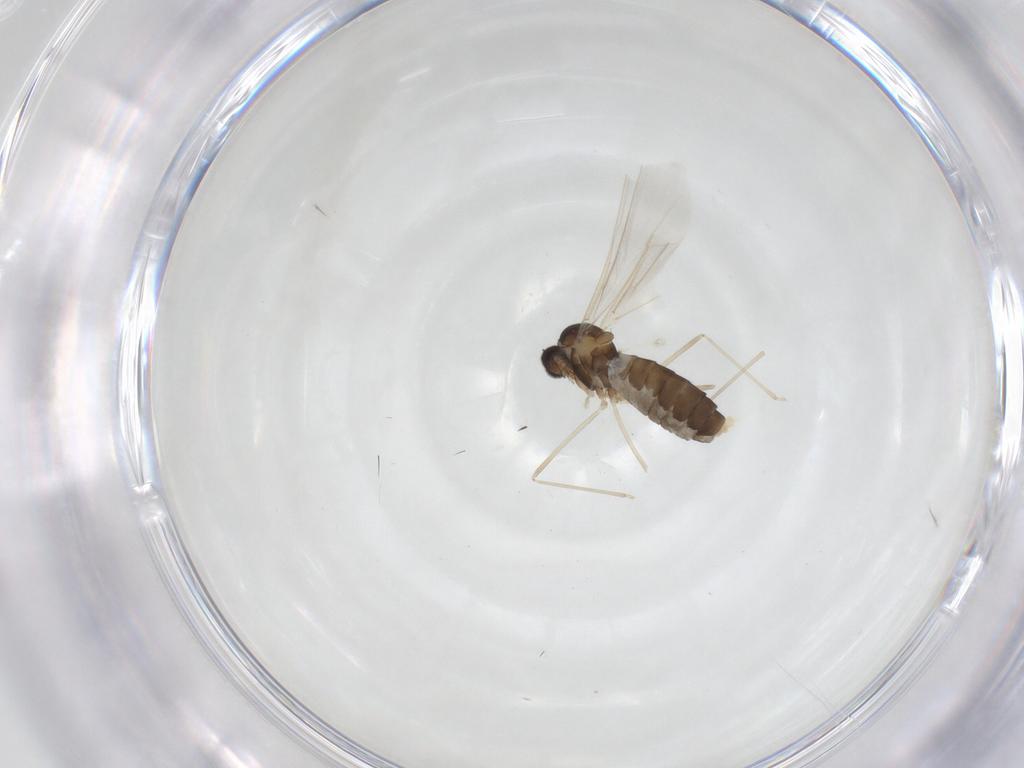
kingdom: Animalia
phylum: Arthropoda
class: Insecta
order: Diptera
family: Cecidomyiidae
